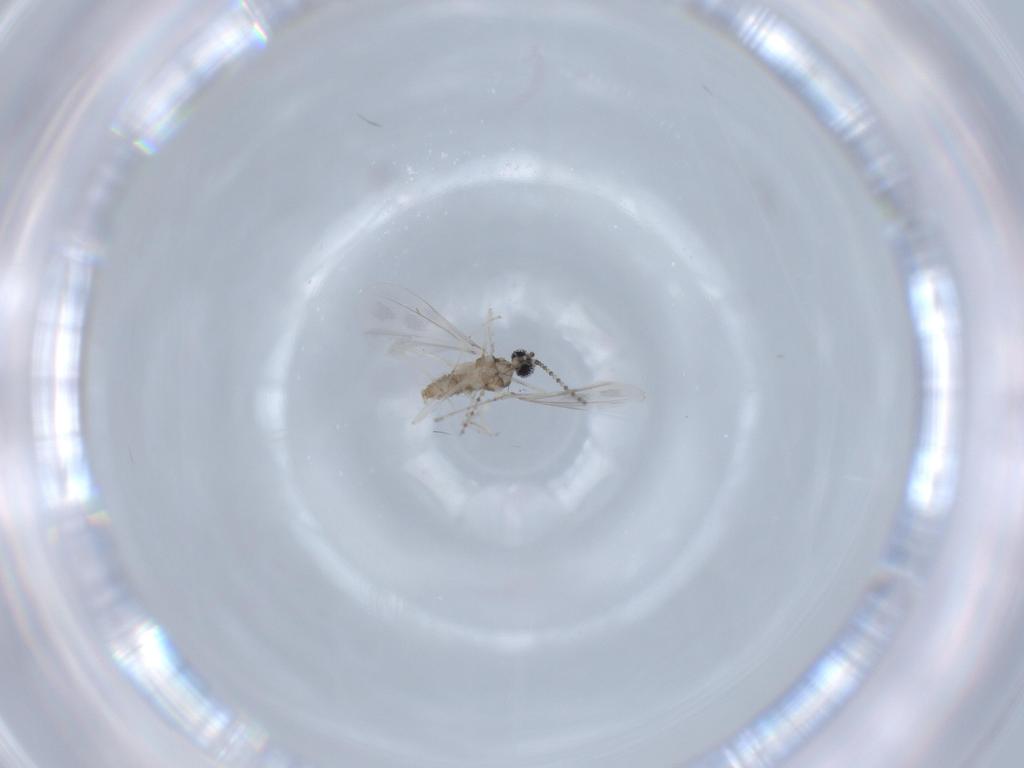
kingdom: Animalia
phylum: Arthropoda
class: Insecta
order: Diptera
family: Cecidomyiidae
